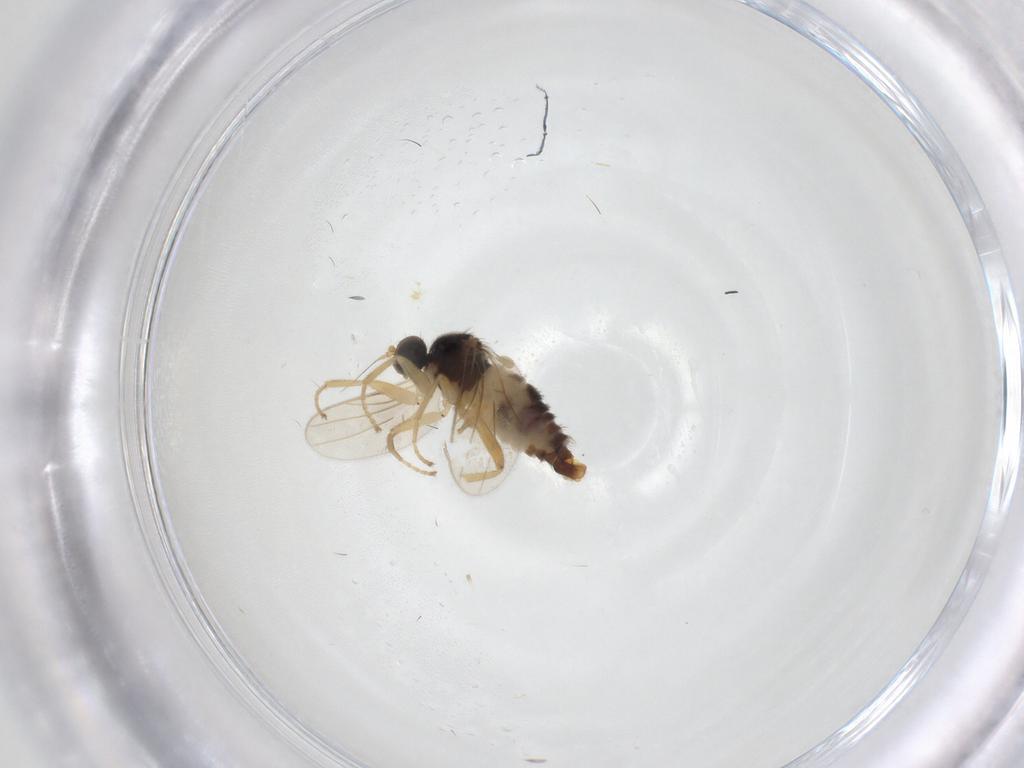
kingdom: Animalia
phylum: Arthropoda
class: Insecta
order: Diptera
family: Hybotidae
